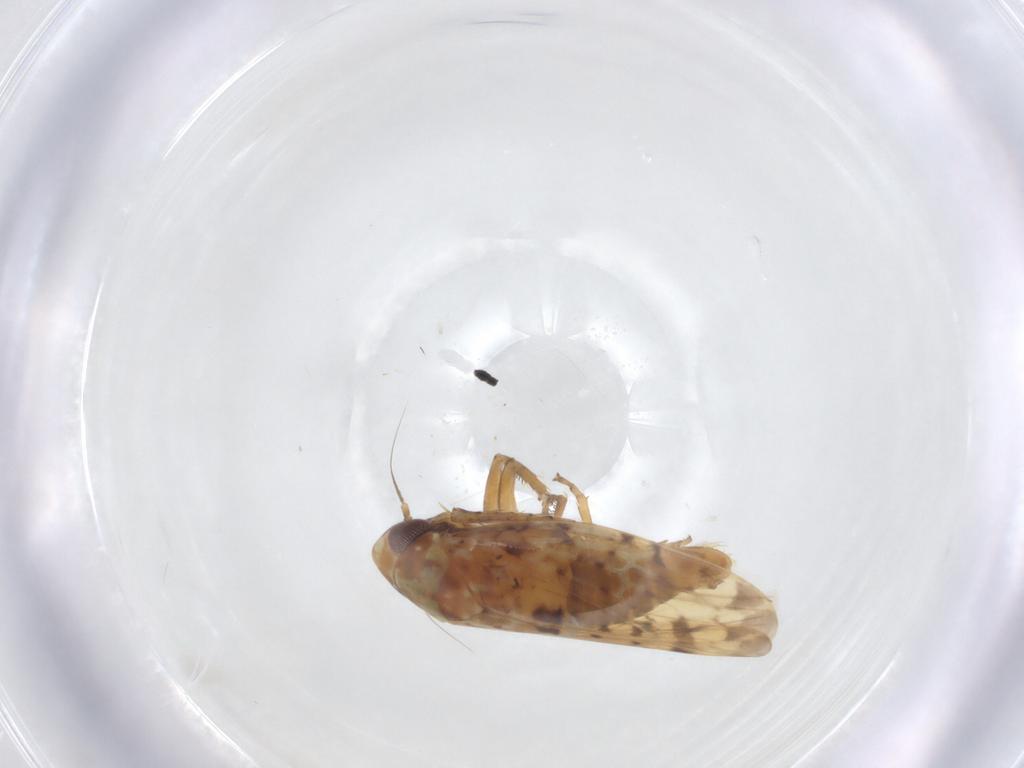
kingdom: Animalia
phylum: Arthropoda
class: Insecta
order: Hemiptera
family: Cicadellidae
